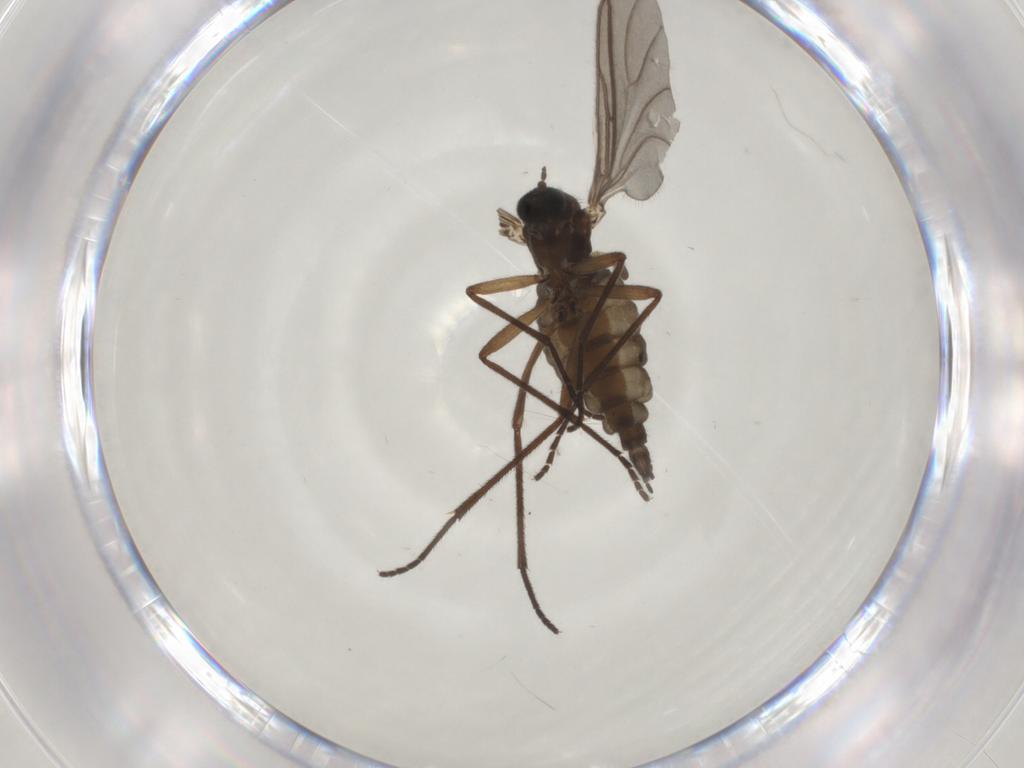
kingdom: Animalia
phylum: Arthropoda
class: Insecta
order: Diptera
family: Sciaridae
